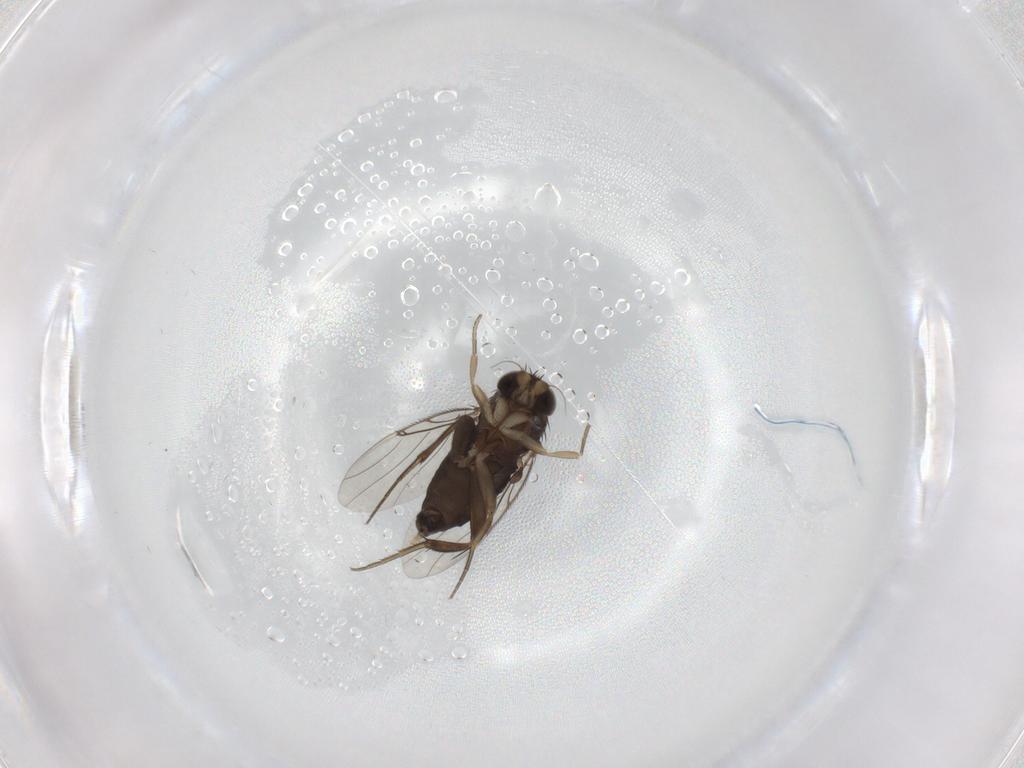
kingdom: Animalia
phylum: Arthropoda
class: Insecta
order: Diptera
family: Phoridae
